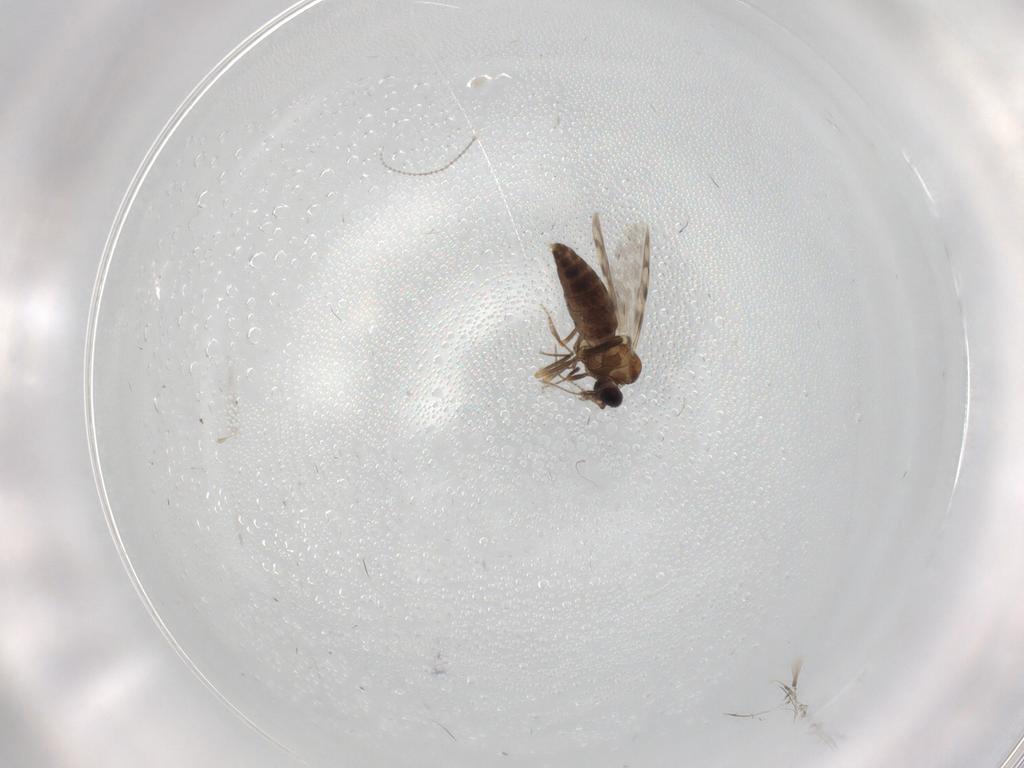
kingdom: Animalia
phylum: Arthropoda
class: Insecta
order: Diptera
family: Ceratopogonidae
